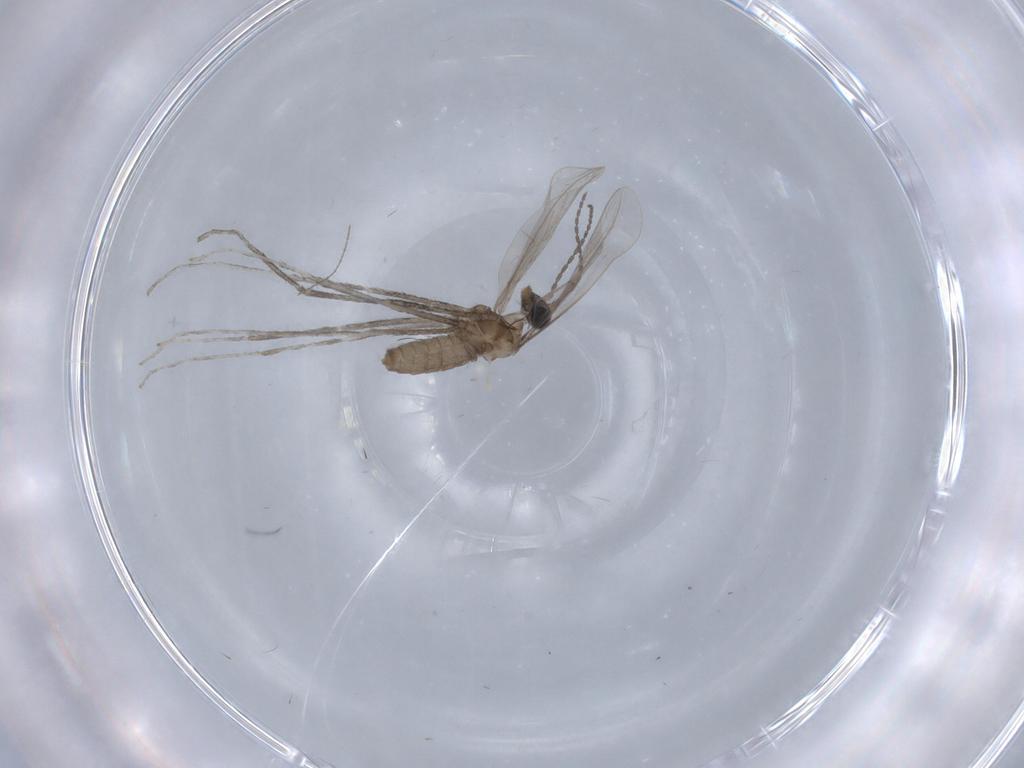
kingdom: Animalia
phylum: Arthropoda
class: Insecta
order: Diptera
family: Cecidomyiidae
